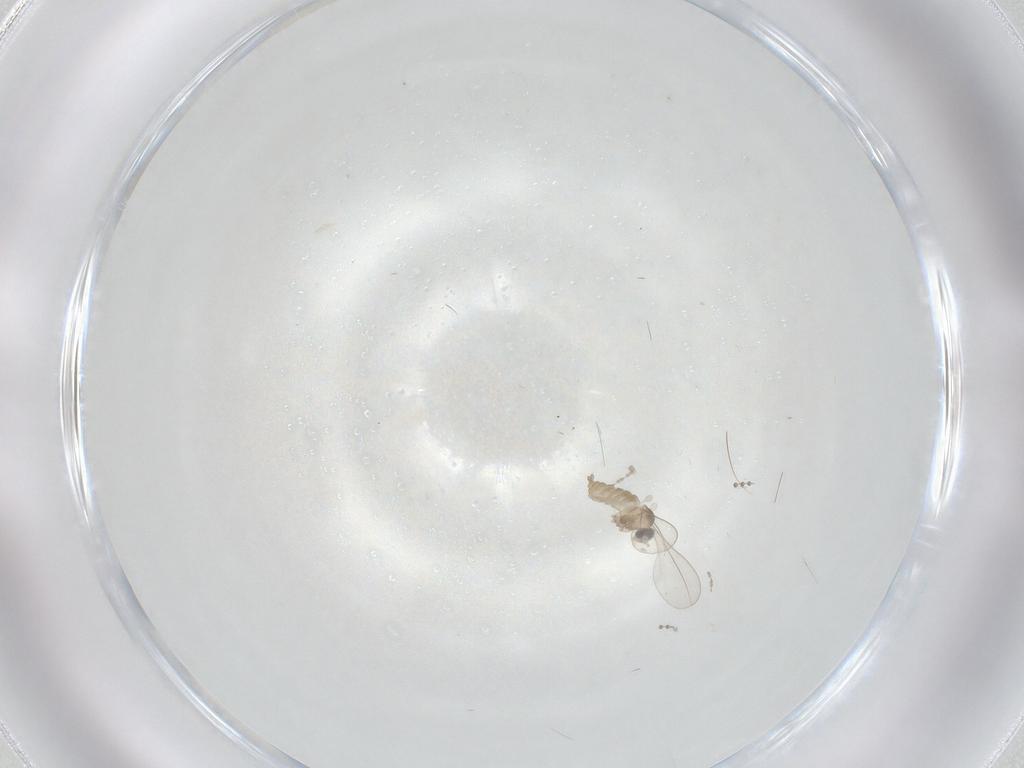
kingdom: Animalia
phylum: Arthropoda
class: Insecta
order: Diptera
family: Cecidomyiidae
